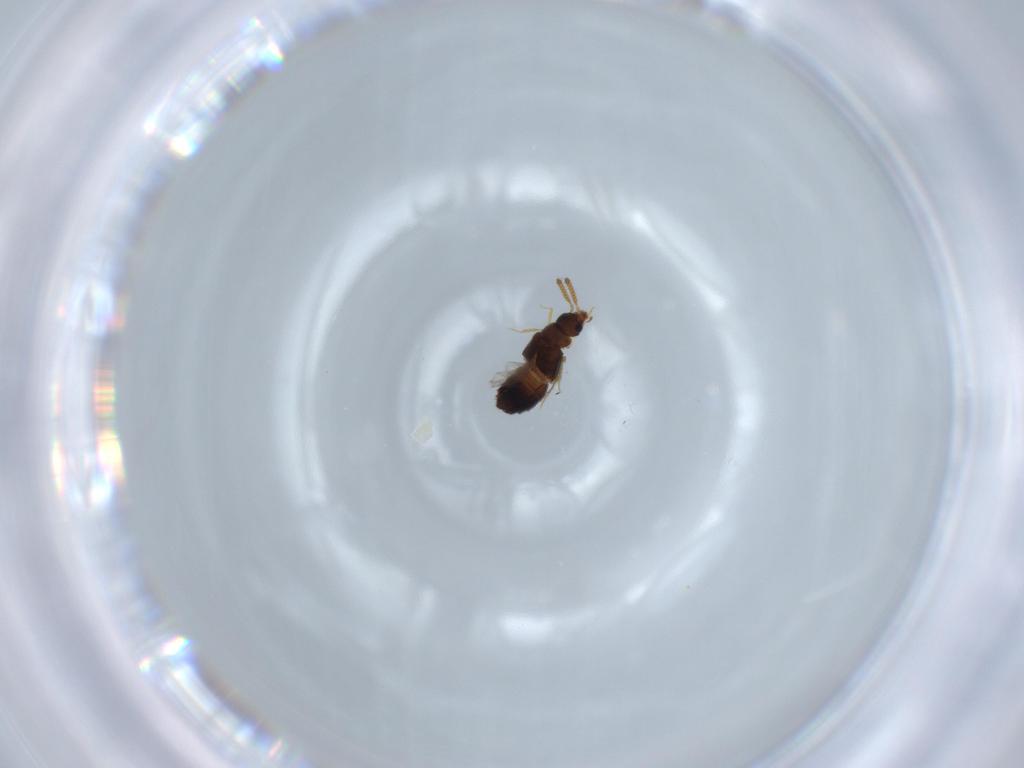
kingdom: Animalia
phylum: Arthropoda
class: Insecta
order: Coleoptera
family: Staphylinidae
